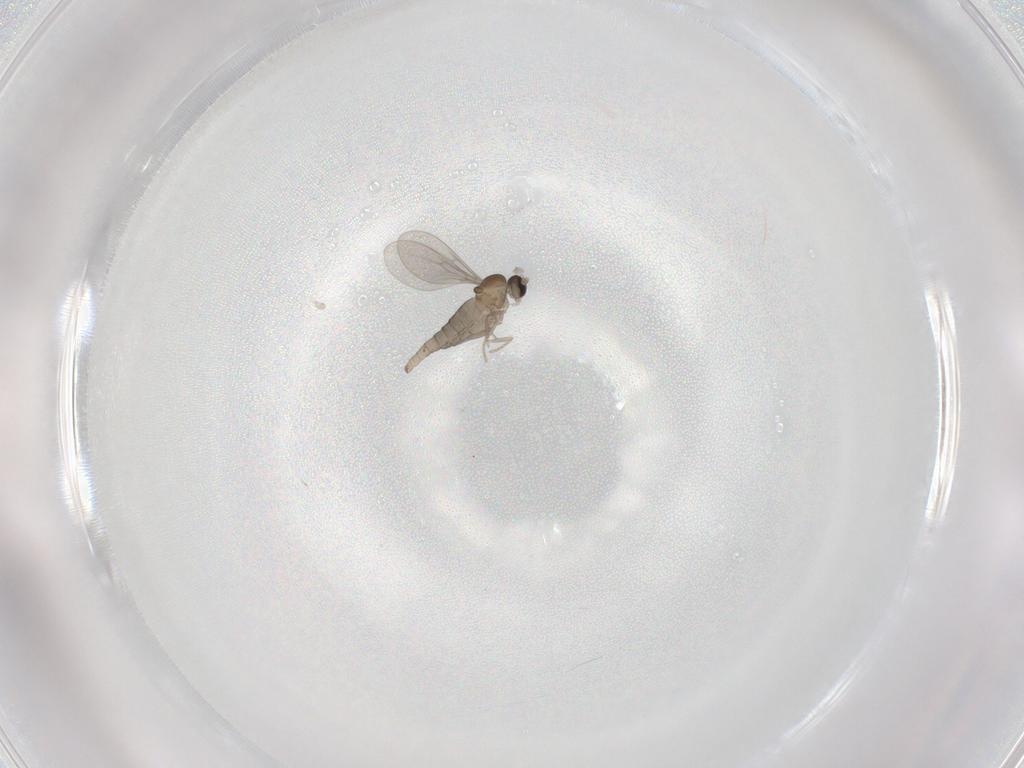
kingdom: Animalia
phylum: Arthropoda
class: Insecta
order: Diptera
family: Cecidomyiidae
